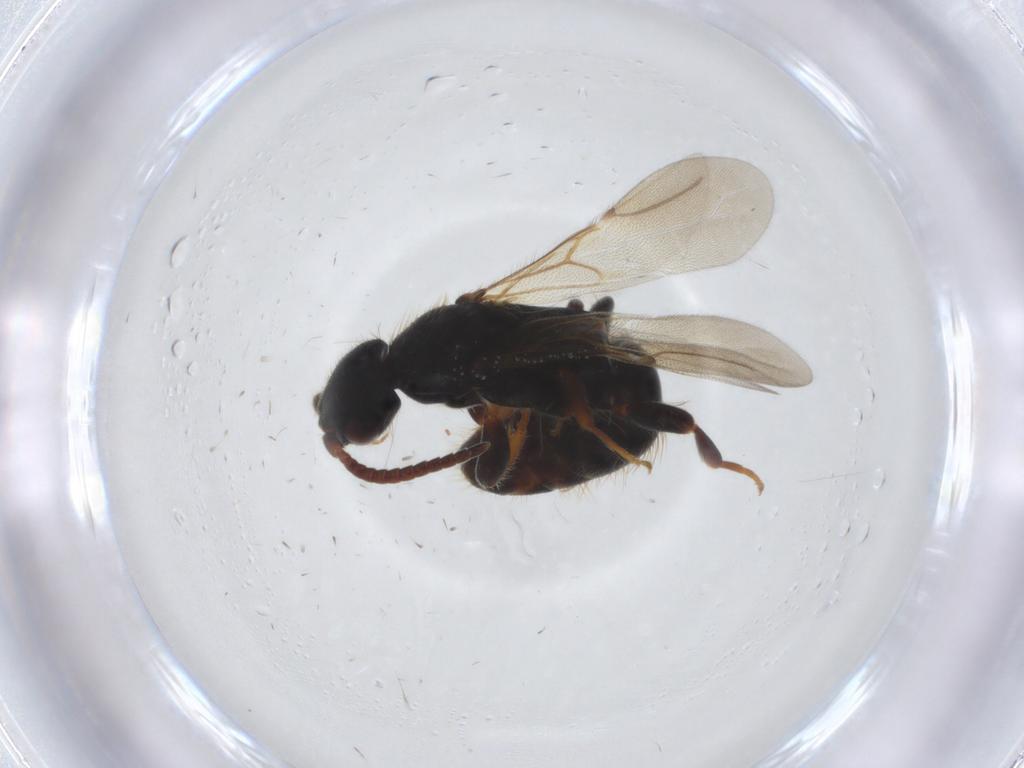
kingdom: Animalia
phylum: Arthropoda
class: Insecta
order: Hymenoptera
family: Bethylidae
